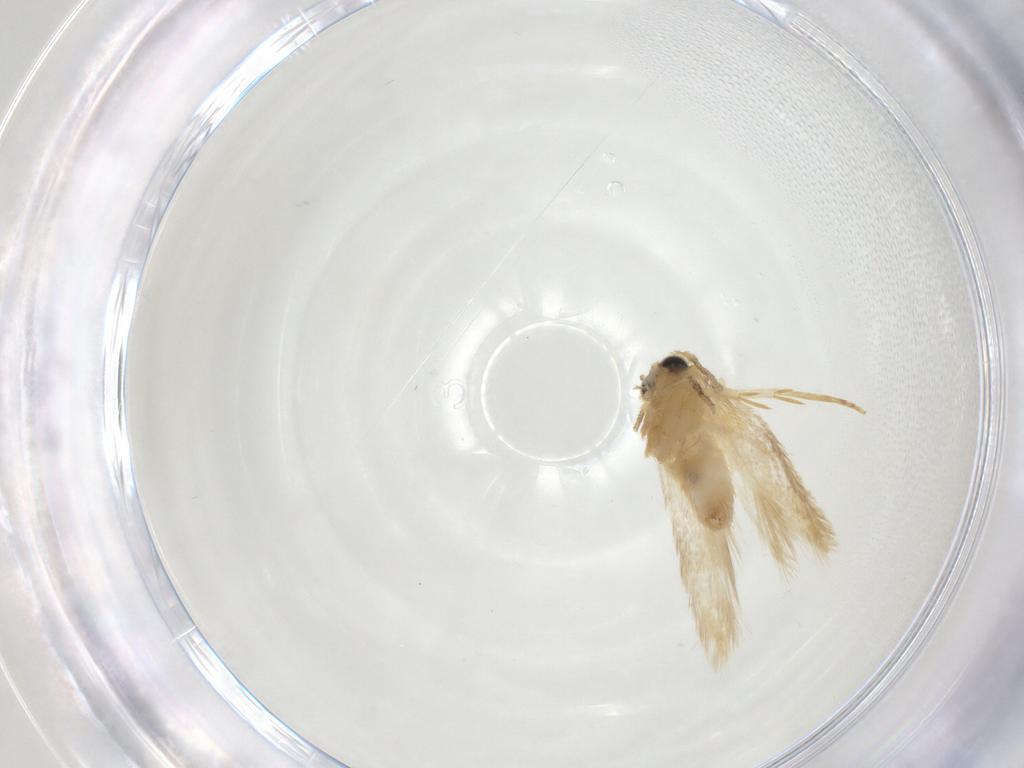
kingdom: Animalia
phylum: Arthropoda
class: Insecta
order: Lepidoptera
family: Nepticulidae
